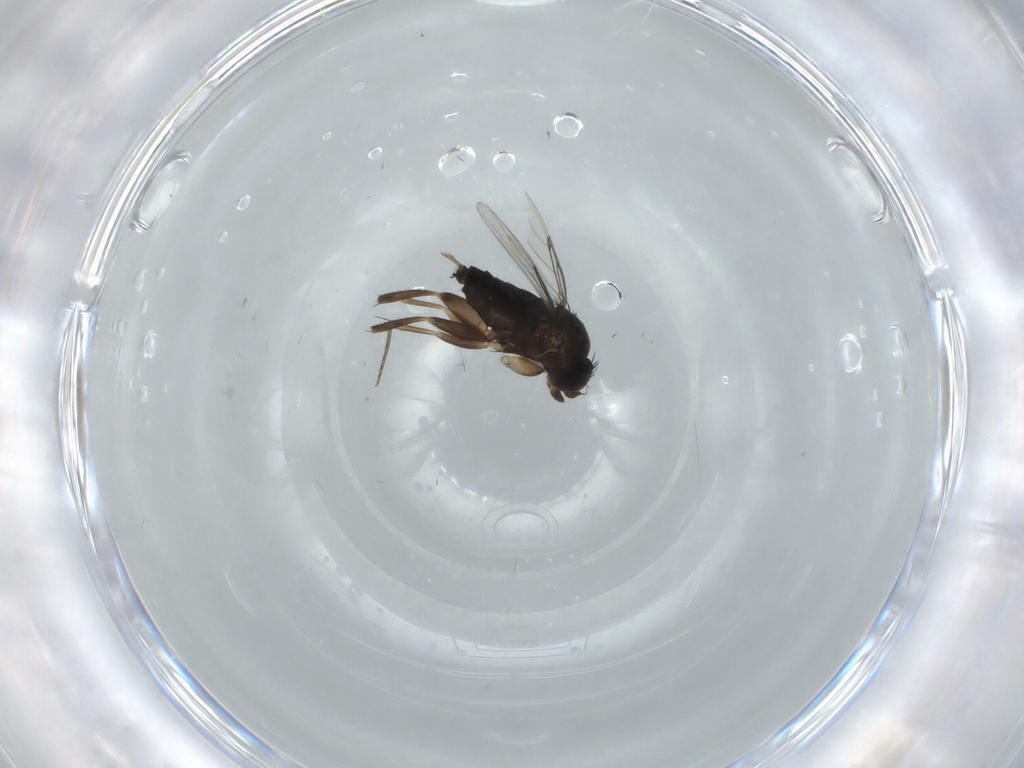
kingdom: Animalia
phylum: Arthropoda
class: Insecta
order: Diptera
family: Phoridae
